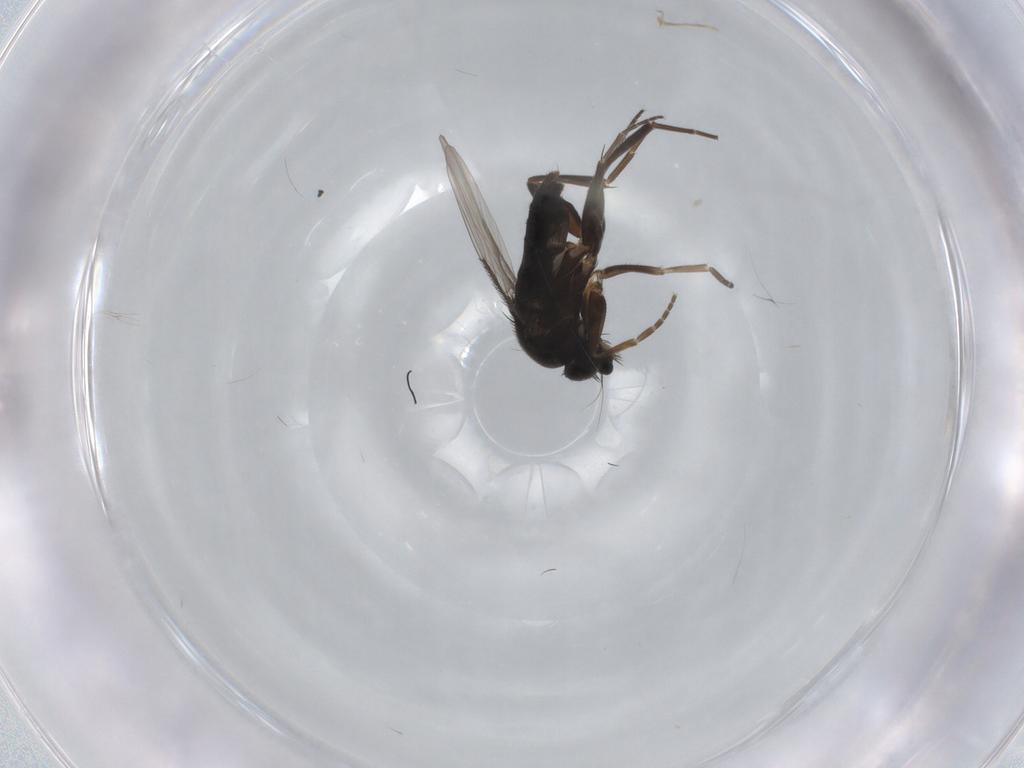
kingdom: Animalia
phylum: Arthropoda
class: Insecta
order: Diptera
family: Phoridae
